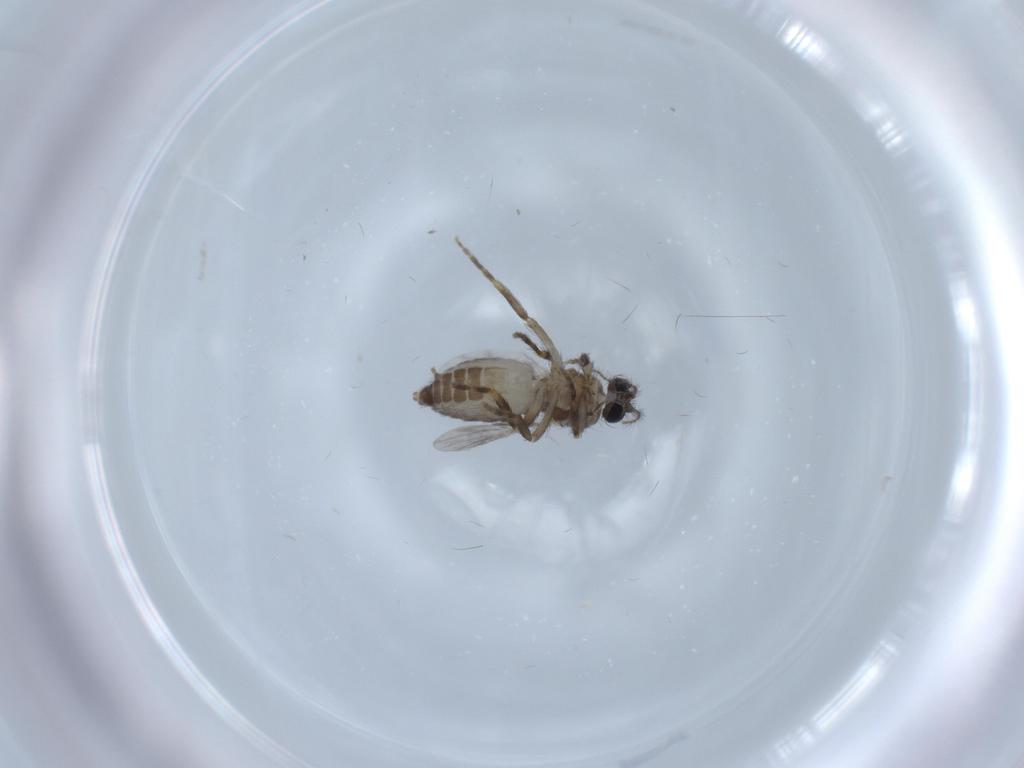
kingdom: Animalia
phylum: Arthropoda
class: Insecta
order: Diptera
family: Ceratopogonidae
